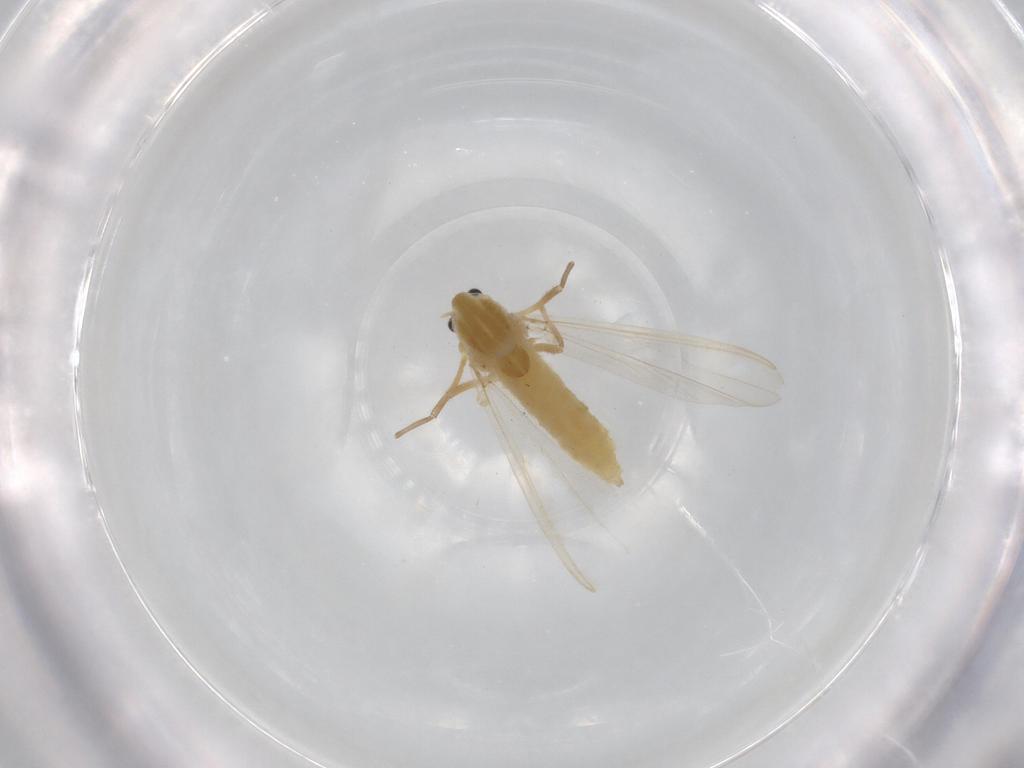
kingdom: Animalia
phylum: Arthropoda
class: Insecta
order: Diptera
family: Chironomidae
